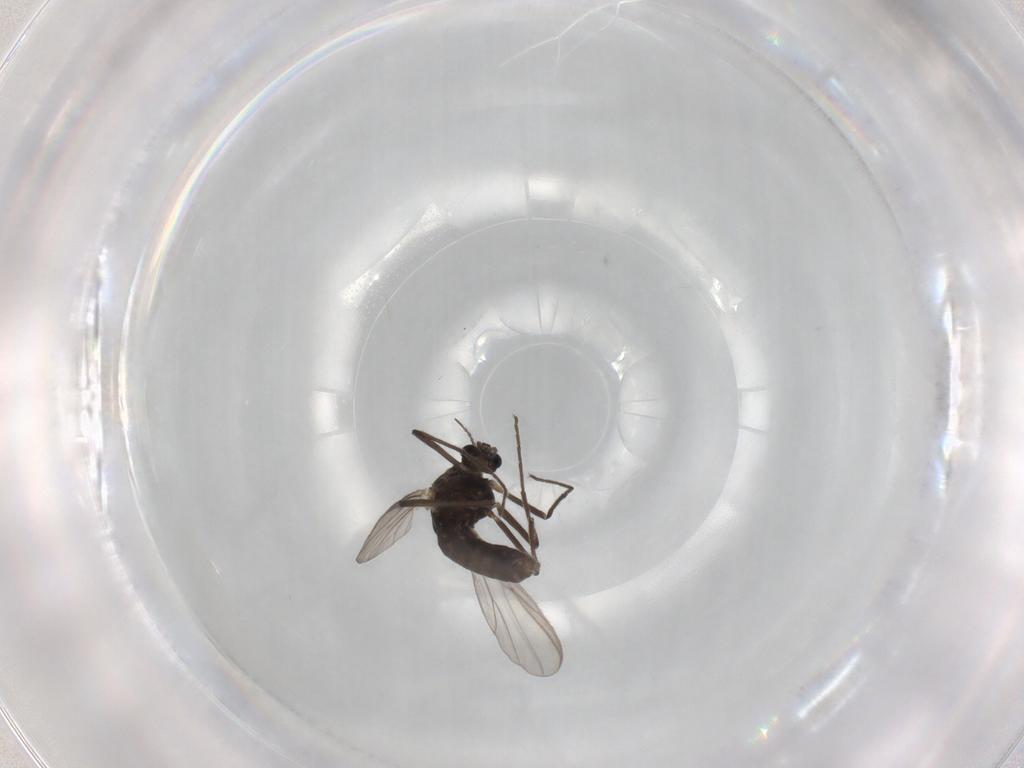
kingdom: Animalia
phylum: Arthropoda
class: Insecta
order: Diptera
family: Chironomidae
